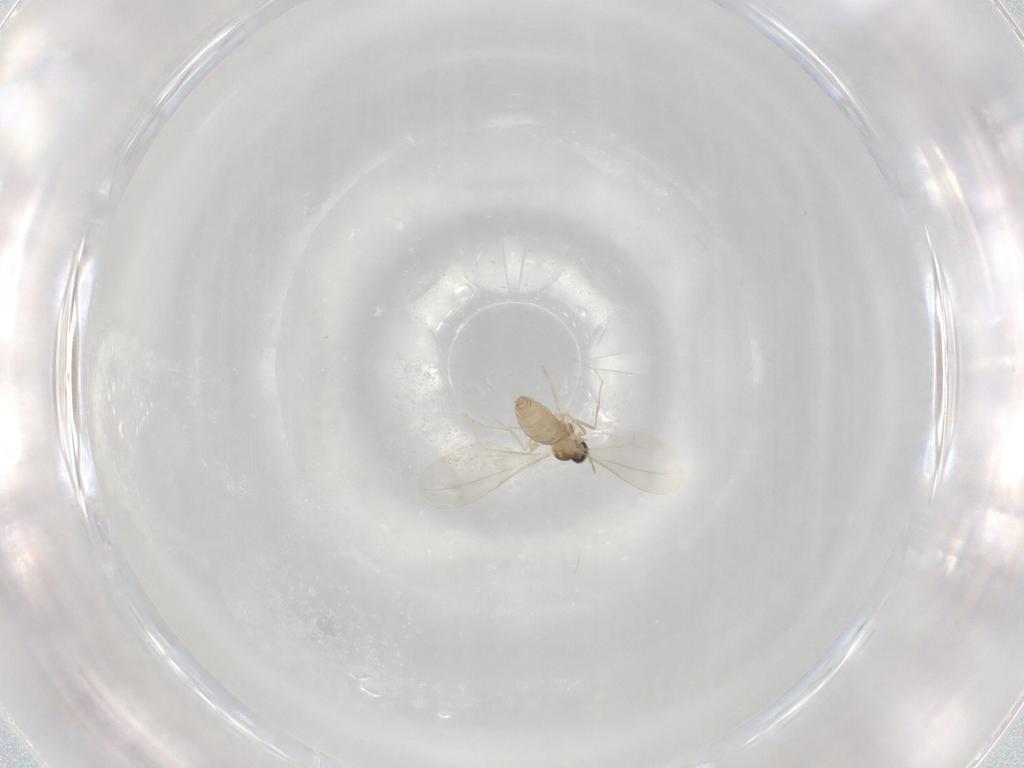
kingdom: Animalia
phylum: Arthropoda
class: Insecta
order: Diptera
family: Cecidomyiidae
